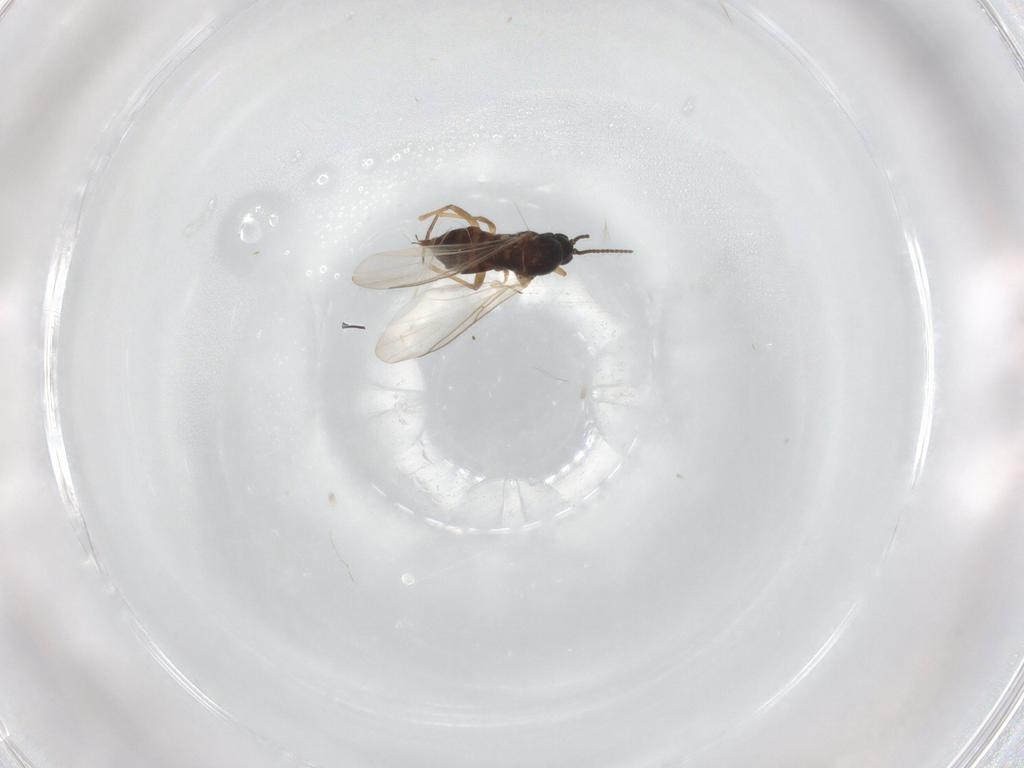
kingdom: Animalia
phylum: Arthropoda
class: Insecta
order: Diptera
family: Sciaridae
